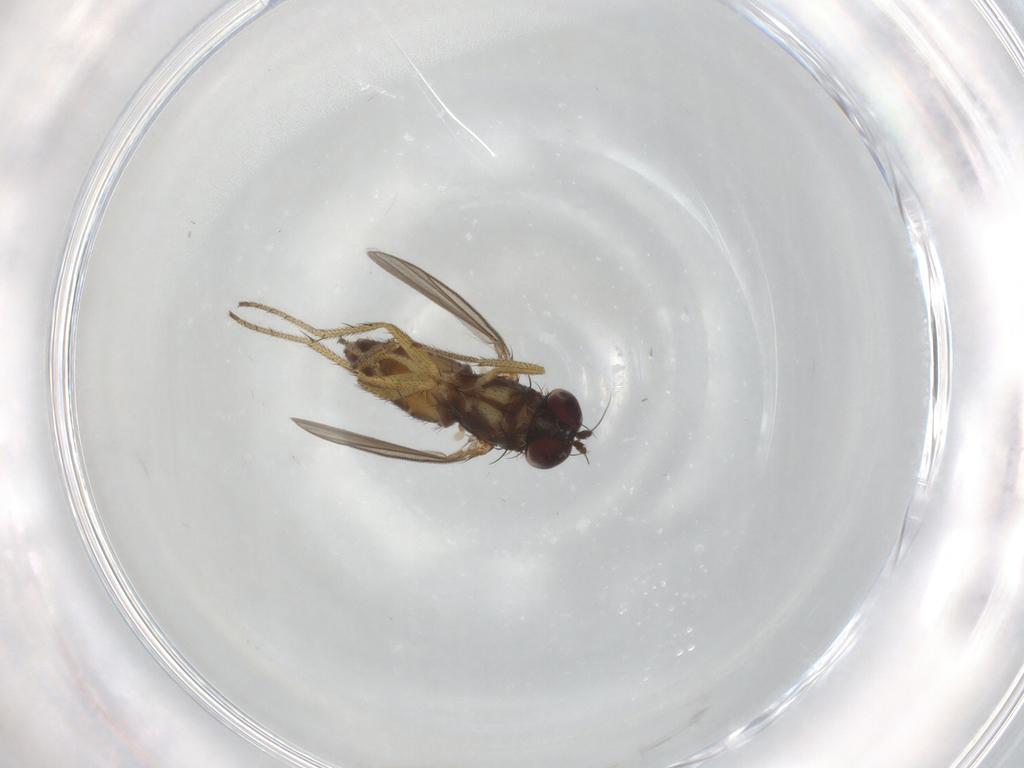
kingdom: Animalia
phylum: Arthropoda
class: Insecta
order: Diptera
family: Dolichopodidae
